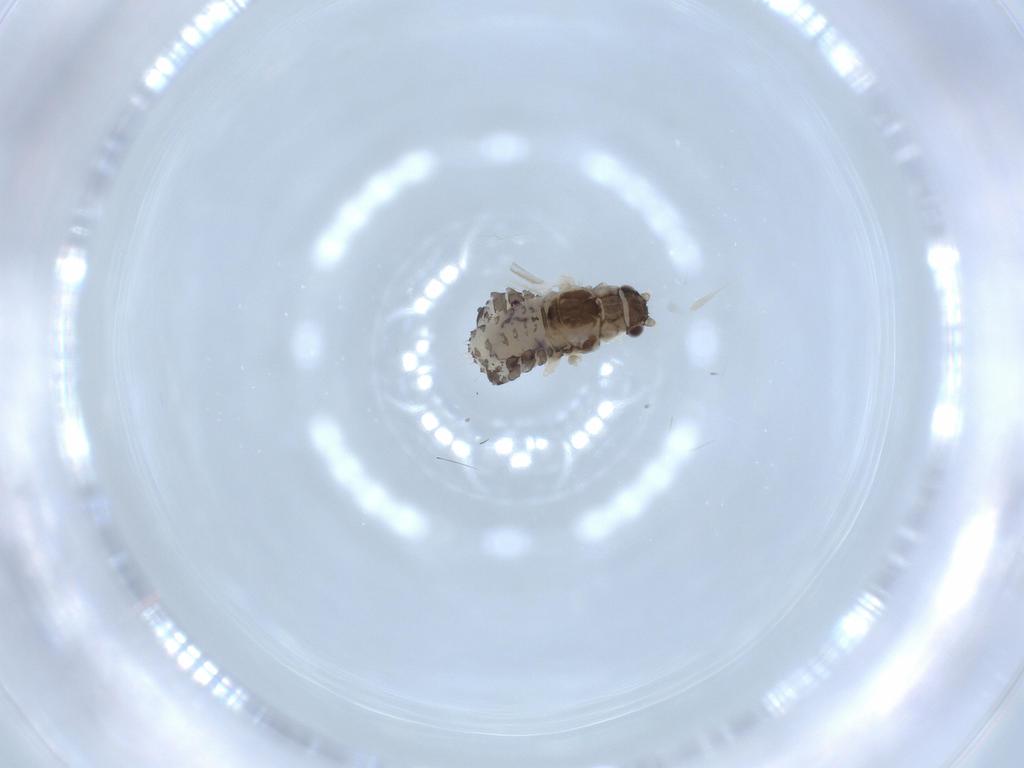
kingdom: Animalia
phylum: Arthropoda
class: Insecta
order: Hemiptera
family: Aphididae
